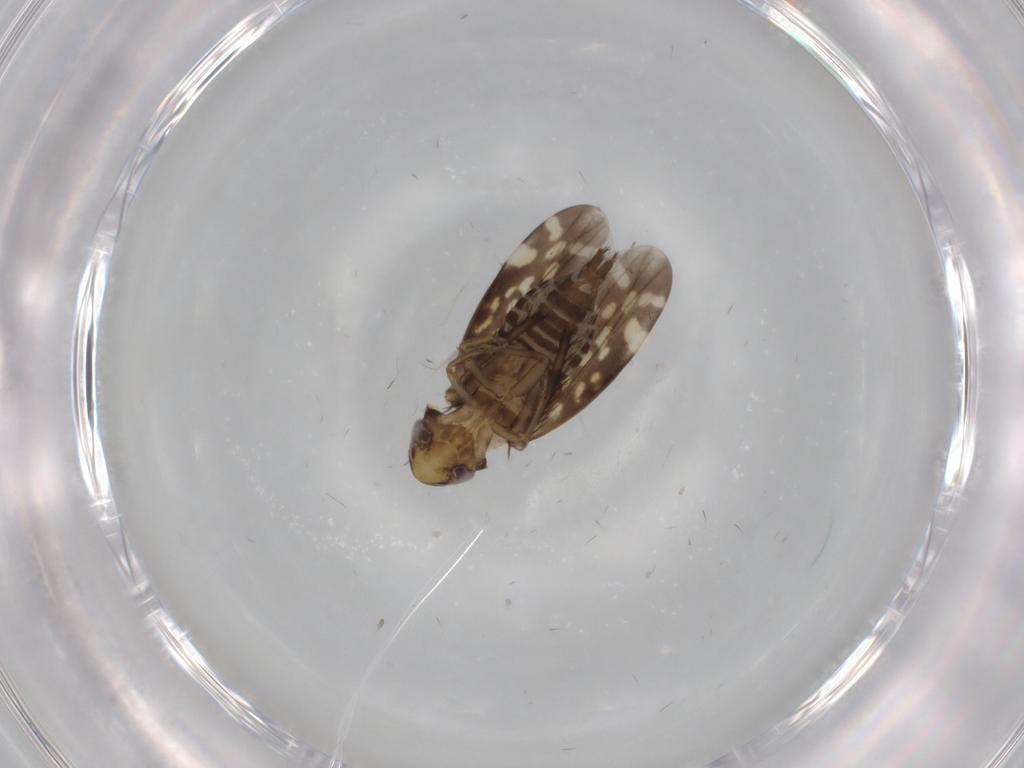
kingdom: Animalia
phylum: Arthropoda
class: Insecta
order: Hemiptera
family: Cicadellidae
